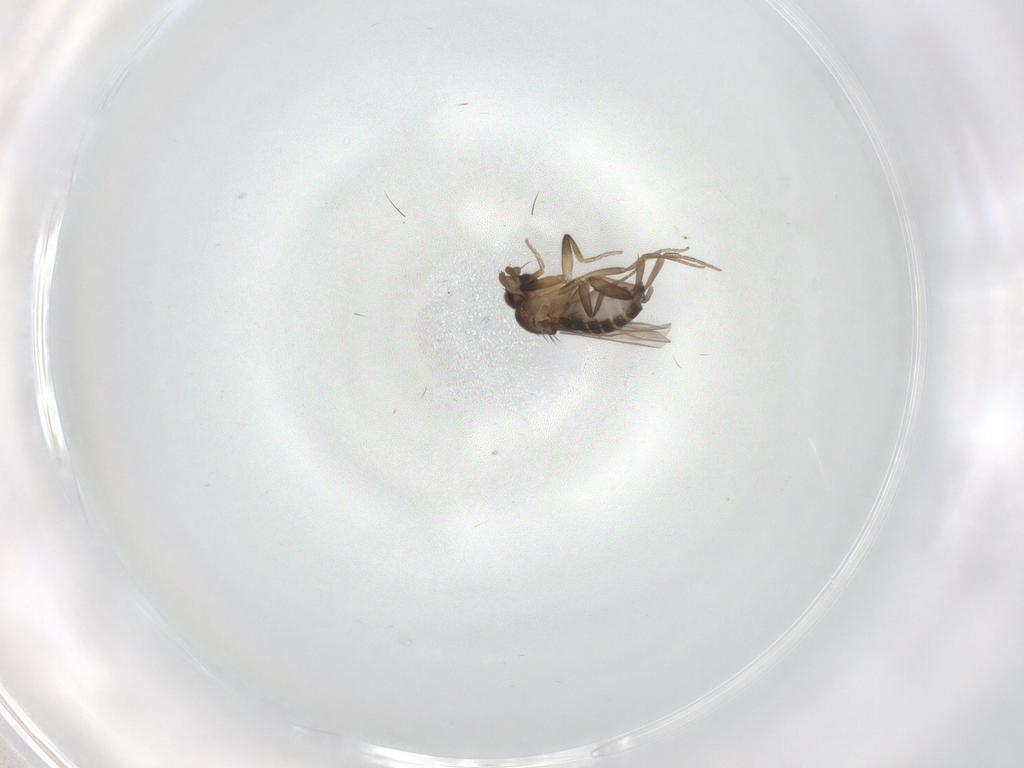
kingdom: Animalia
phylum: Arthropoda
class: Insecta
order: Diptera
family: Phoridae
